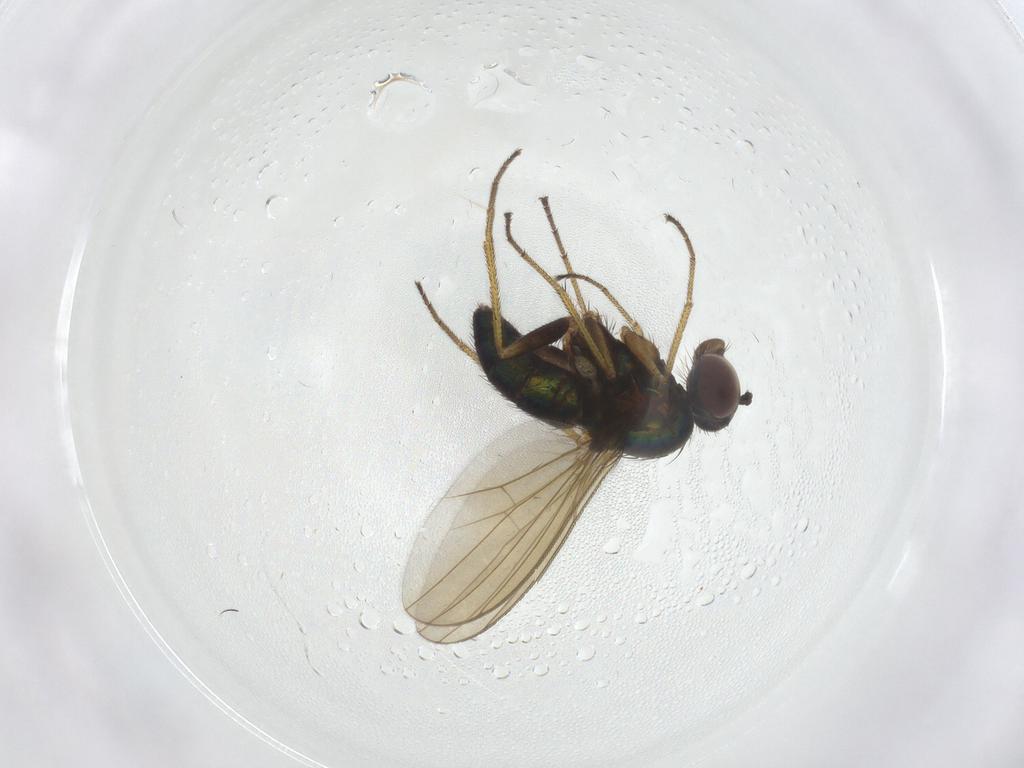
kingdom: Animalia
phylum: Arthropoda
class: Insecta
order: Diptera
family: Dolichopodidae
